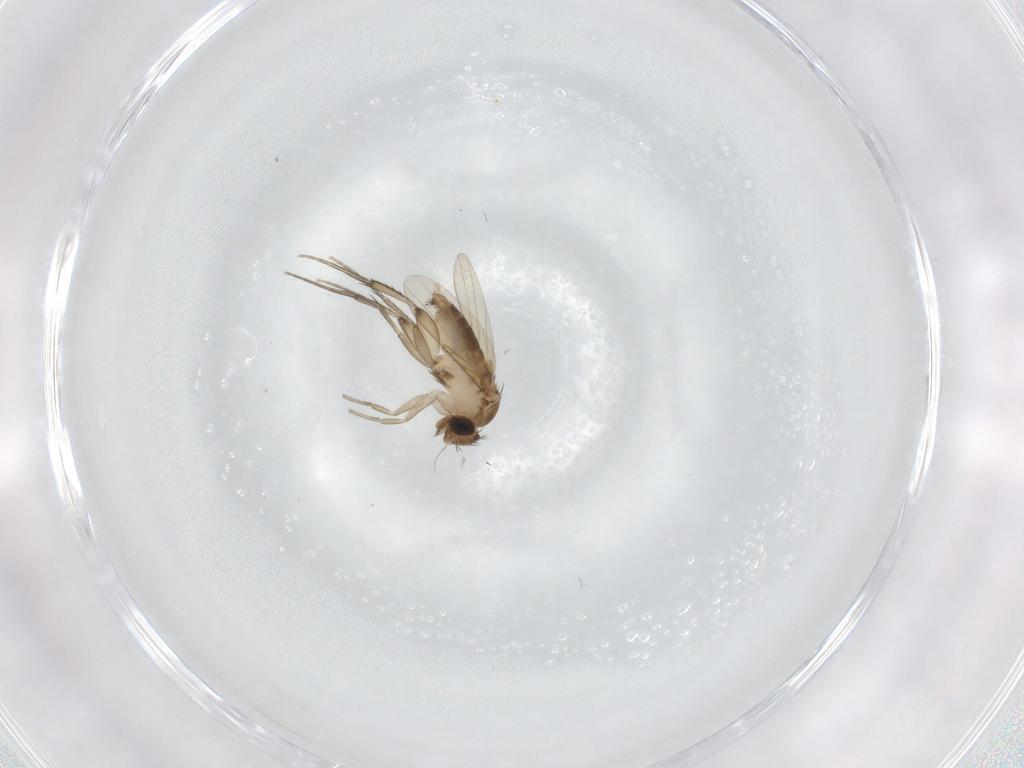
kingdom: Animalia
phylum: Arthropoda
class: Insecta
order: Diptera
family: Phoridae
